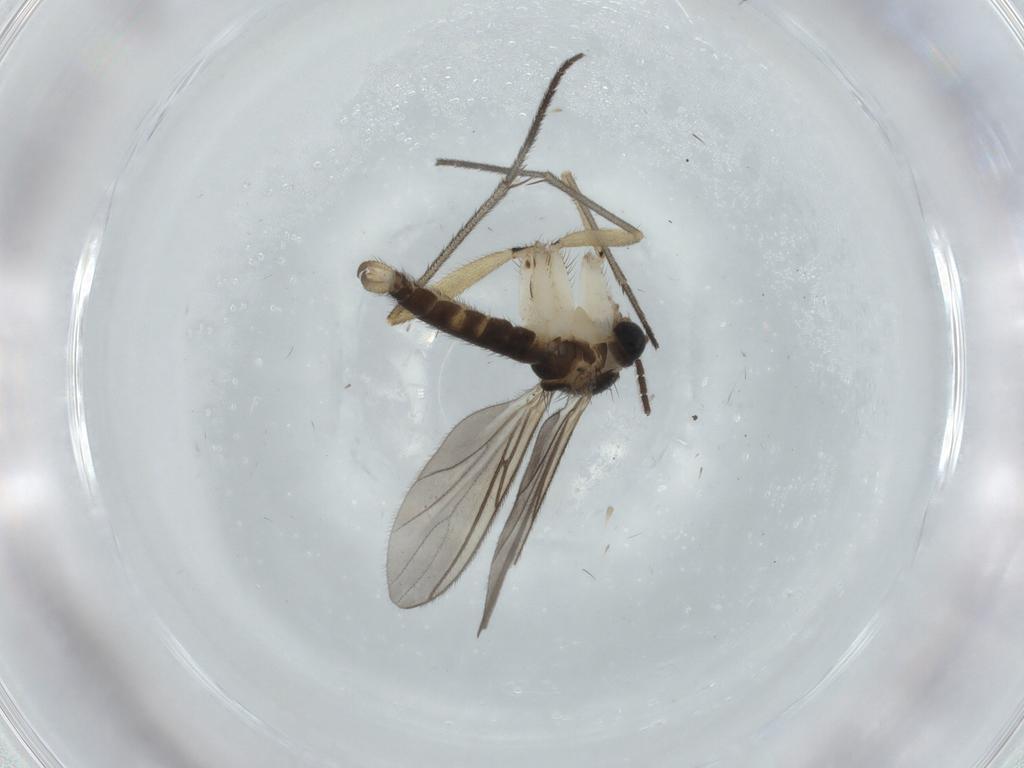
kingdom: Animalia
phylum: Arthropoda
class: Insecta
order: Diptera
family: Sciaridae
